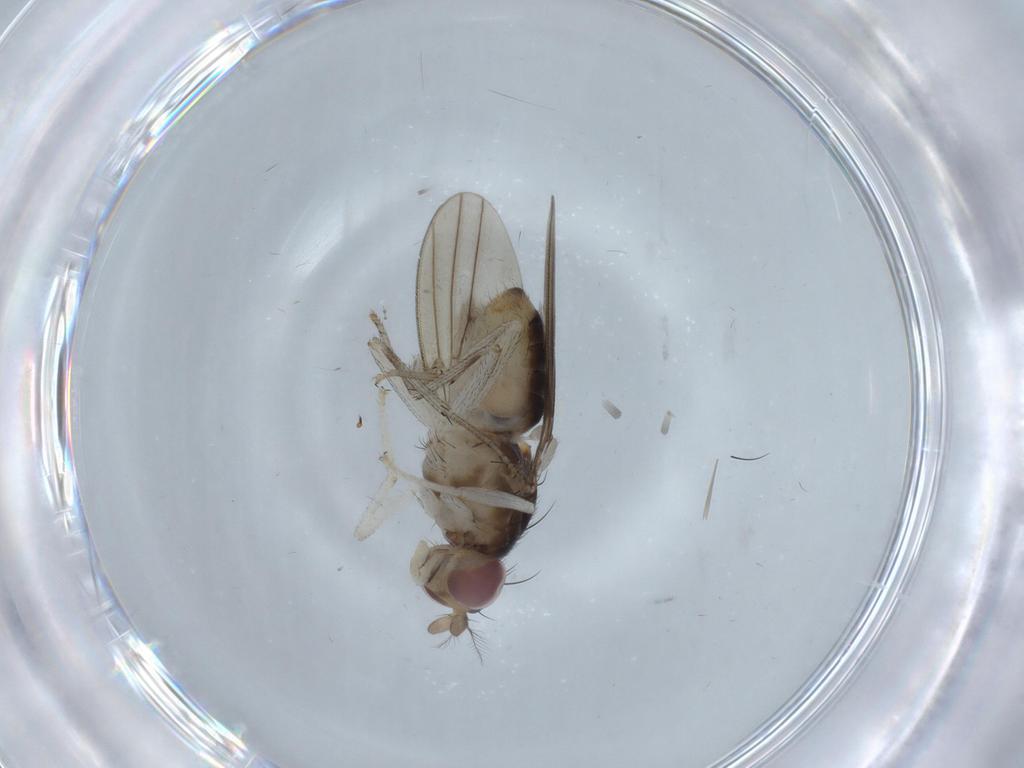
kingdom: Animalia
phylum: Arthropoda
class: Insecta
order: Diptera
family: Lauxaniidae
